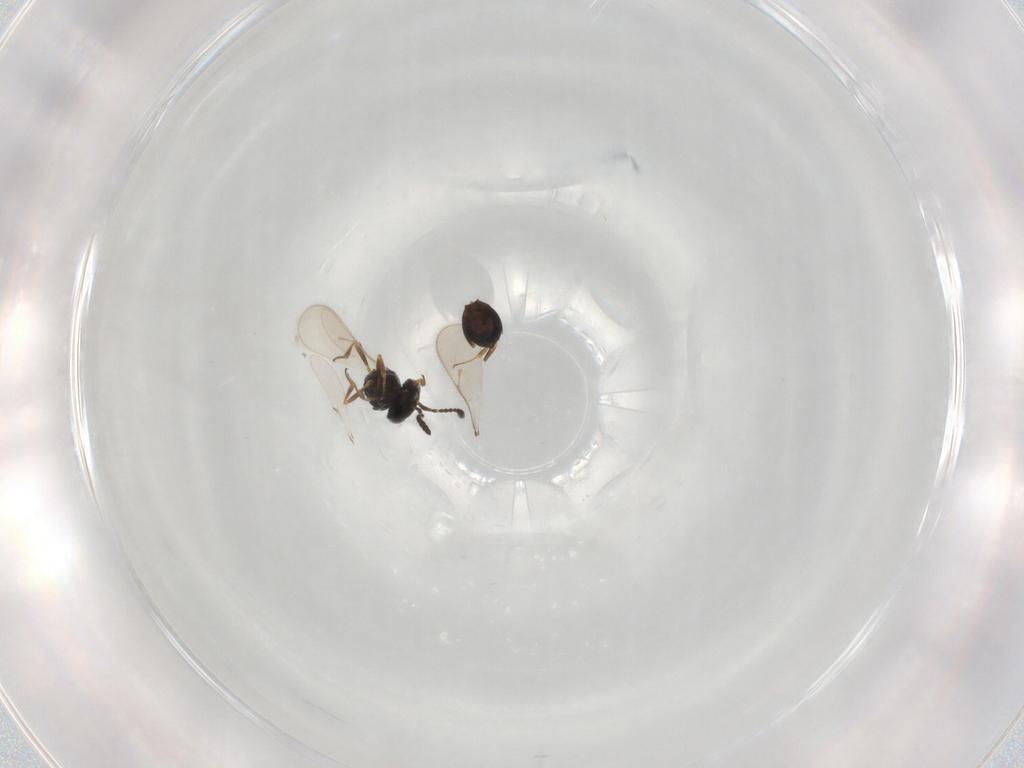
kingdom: Animalia
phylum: Arthropoda
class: Insecta
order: Hymenoptera
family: Scelionidae
